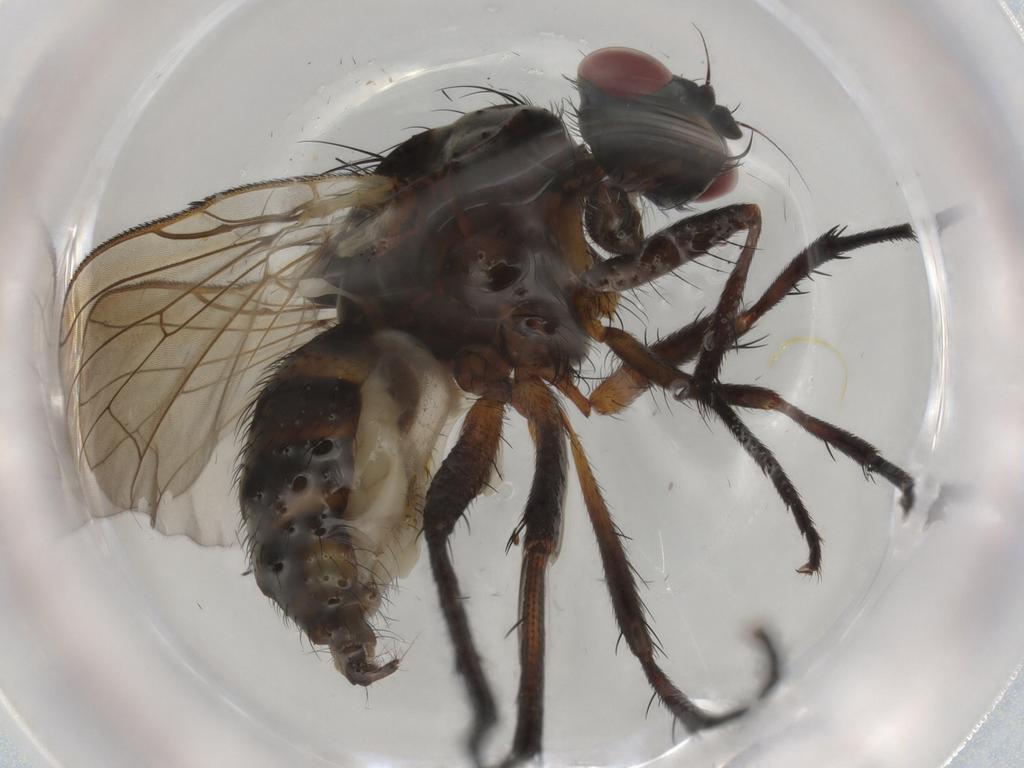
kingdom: Animalia
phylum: Arthropoda
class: Insecta
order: Diptera
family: Anthomyiidae
